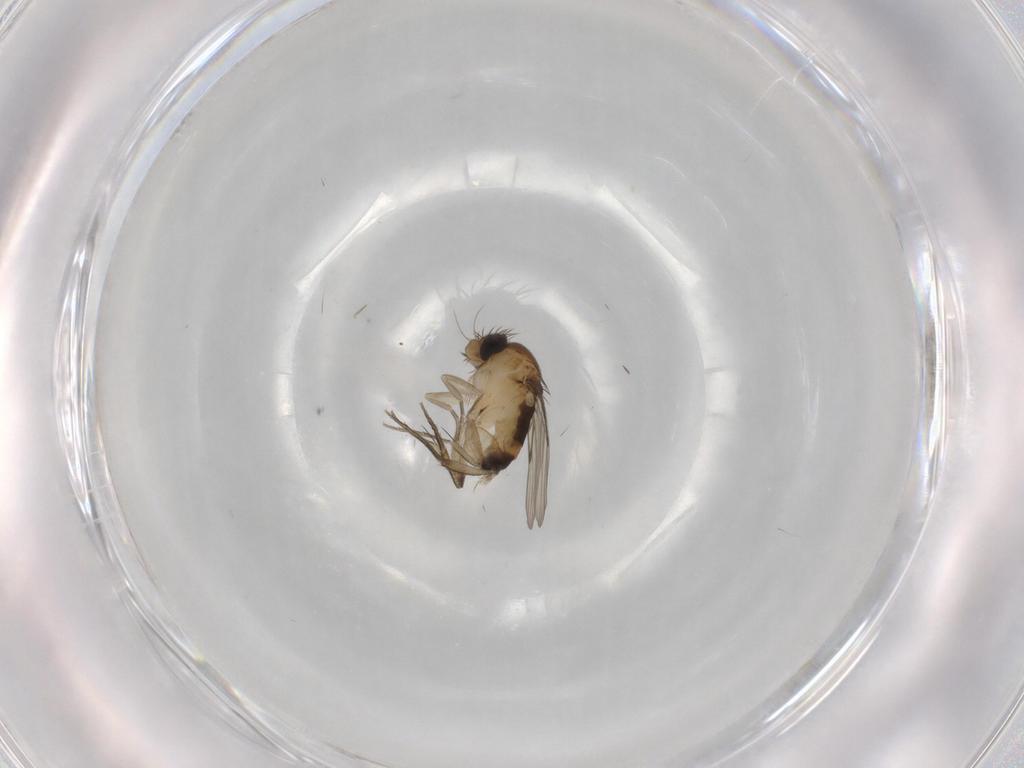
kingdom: Animalia
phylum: Arthropoda
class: Insecta
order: Diptera
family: Phoridae
